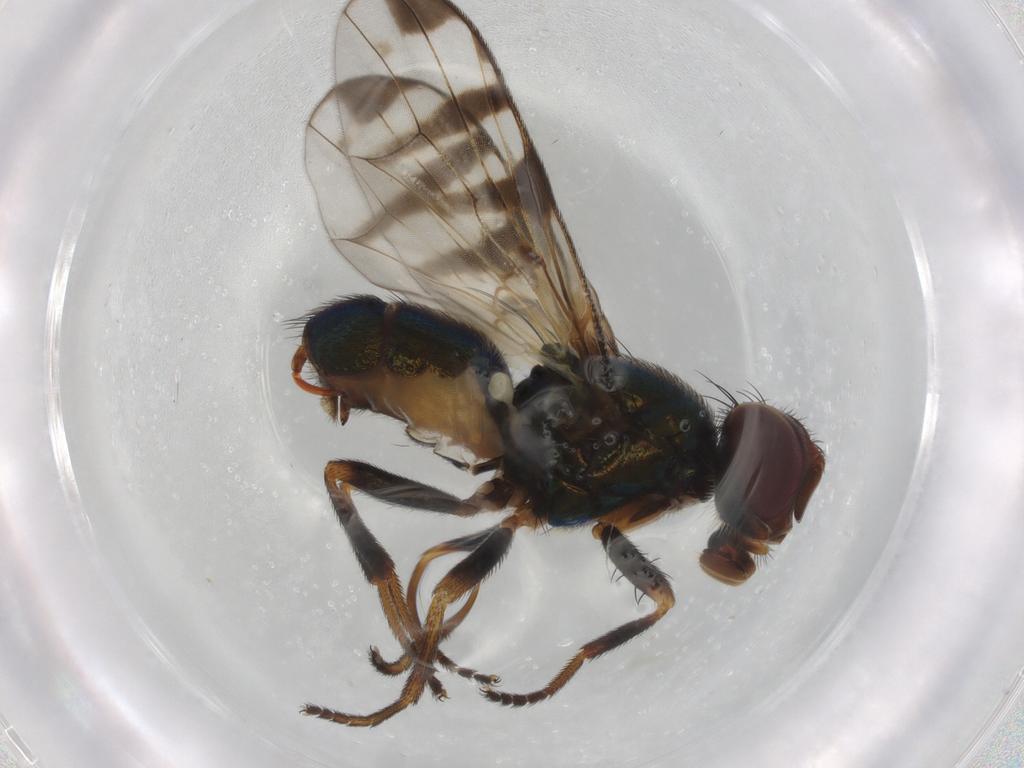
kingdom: Animalia
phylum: Arthropoda
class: Insecta
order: Diptera
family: Platystomatidae
